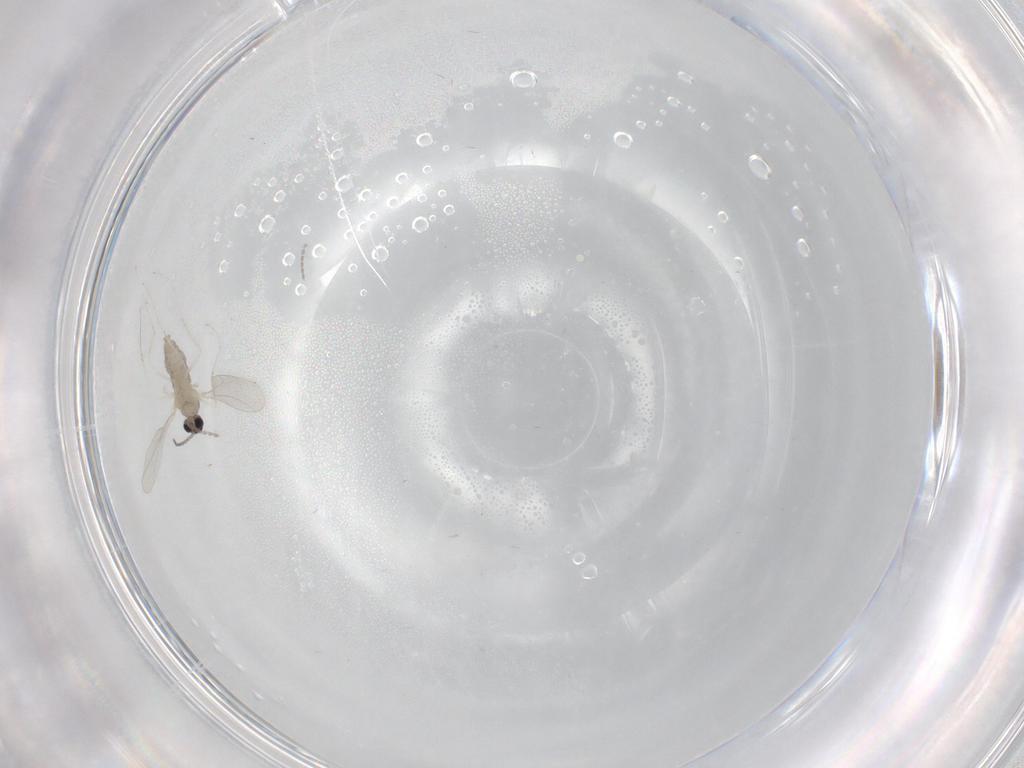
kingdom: Animalia
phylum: Arthropoda
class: Insecta
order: Diptera
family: Cecidomyiidae
